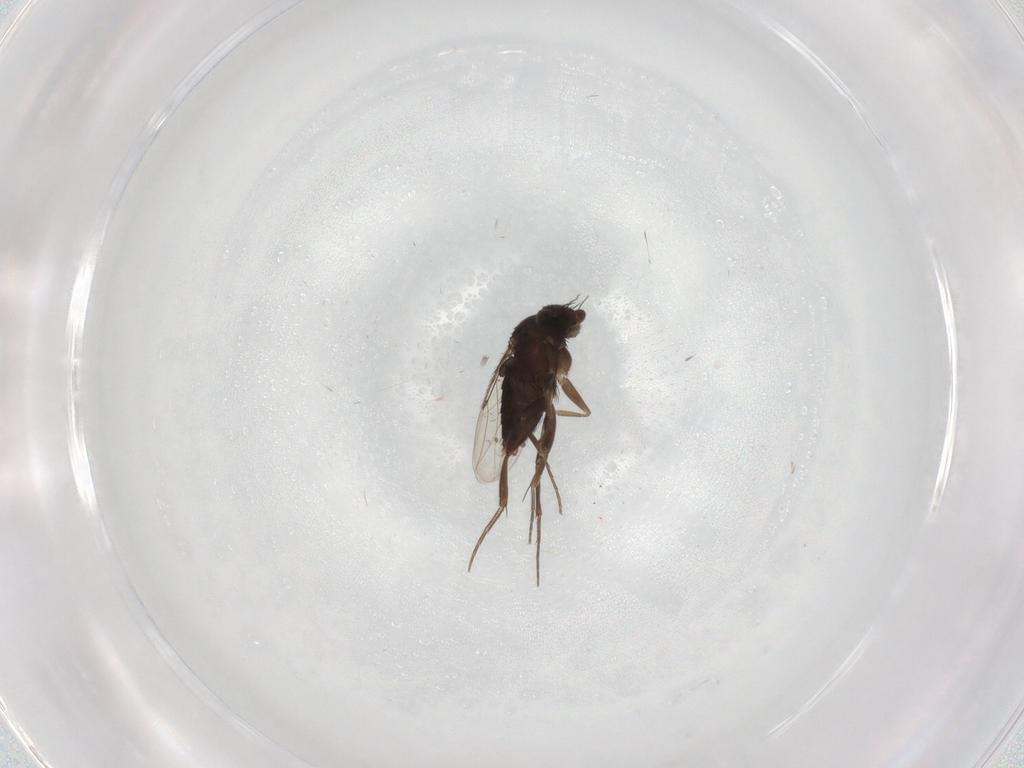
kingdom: Animalia
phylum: Arthropoda
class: Insecta
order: Diptera
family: Phoridae
